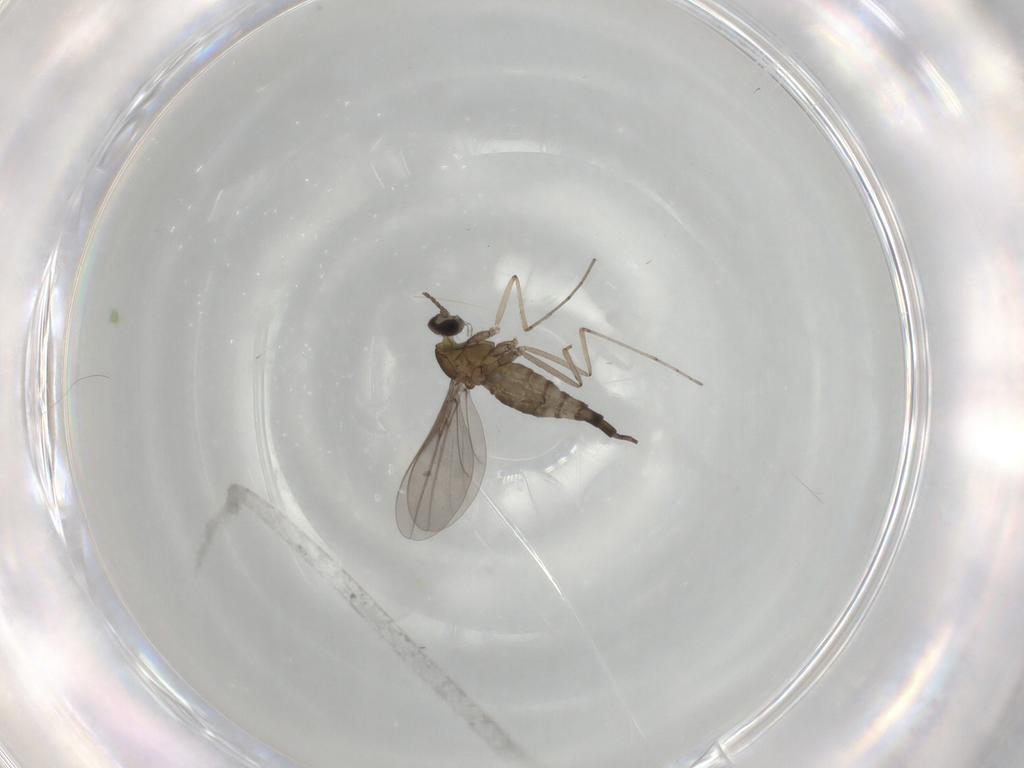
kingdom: Animalia
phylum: Arthropoda
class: Insecta
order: Diptera
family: Cecidomyiidae
